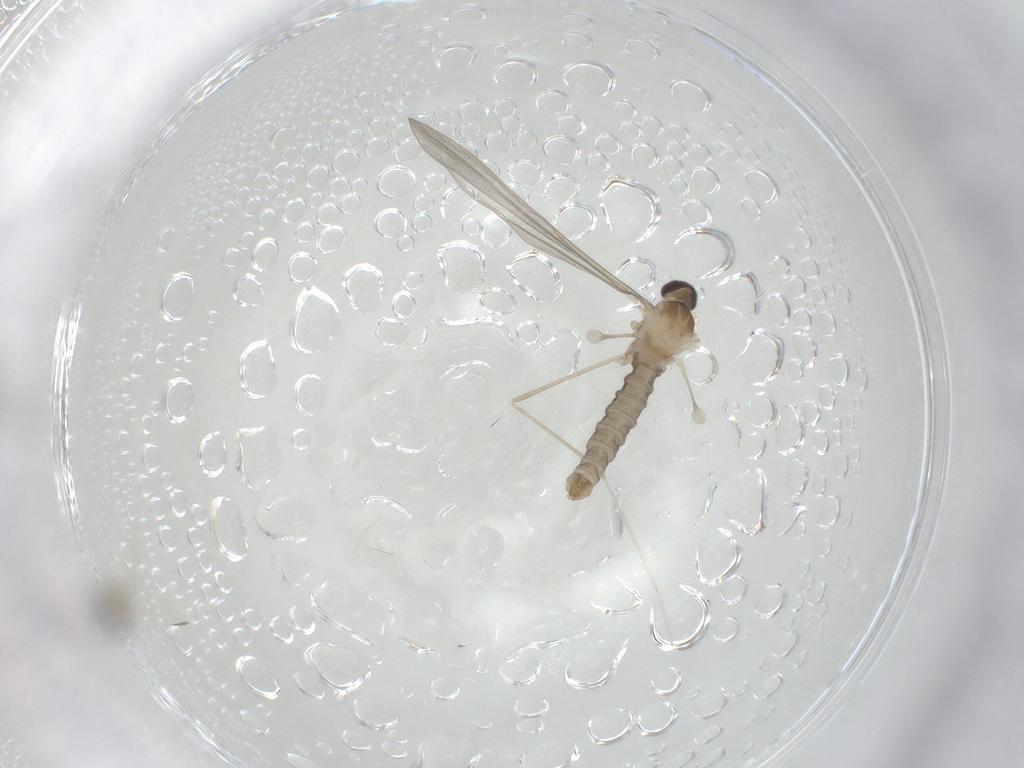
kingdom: Animalia
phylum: Arthropoda
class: Insecta
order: Diptera
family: Cecidomyiidae
